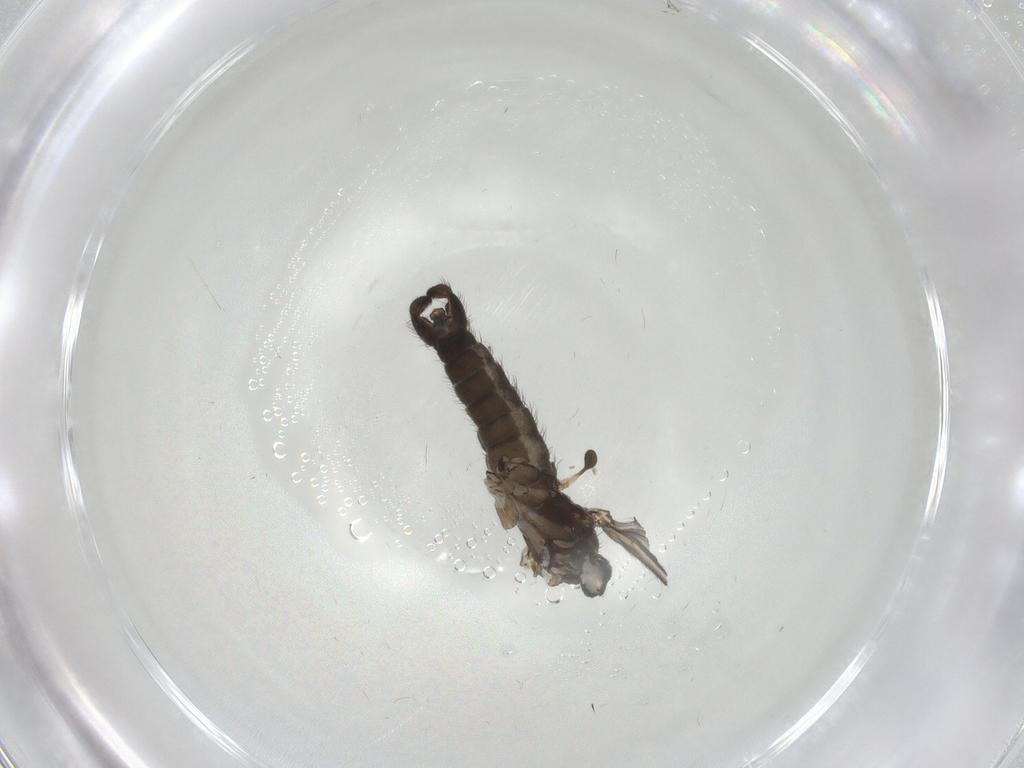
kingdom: Animalia
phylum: Arthropoda
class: Insecta
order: Diptera
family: Sciaridae
